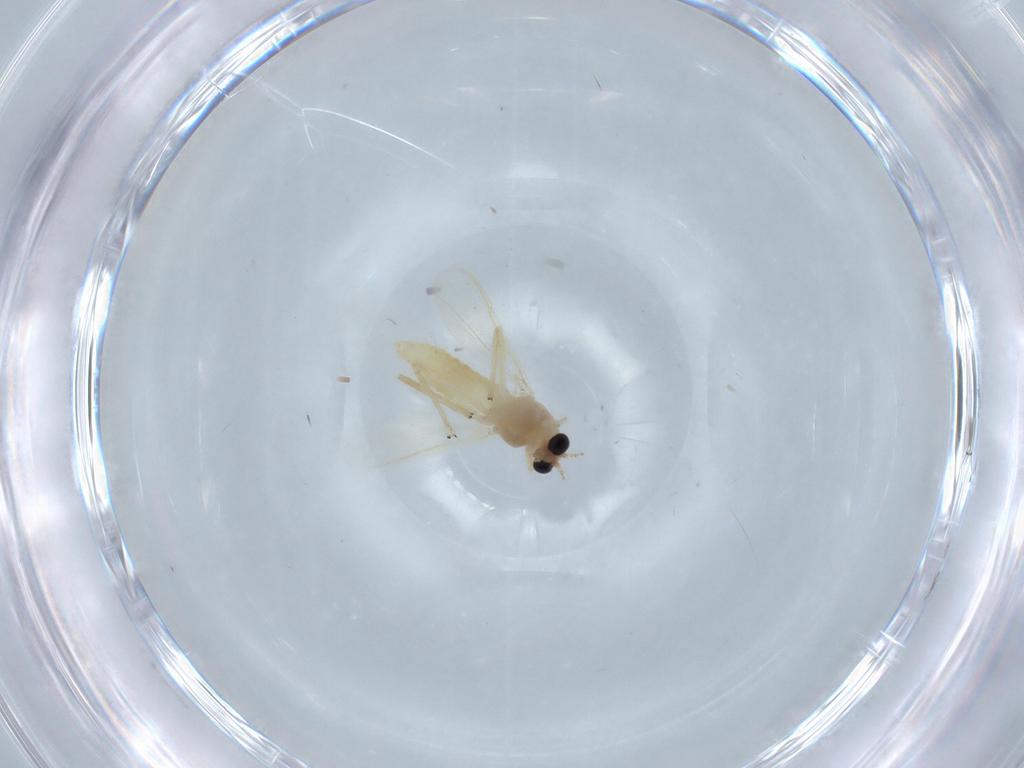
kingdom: Animalia
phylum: Arthropoda
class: Insecta
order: Diptera
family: Chironomidae
